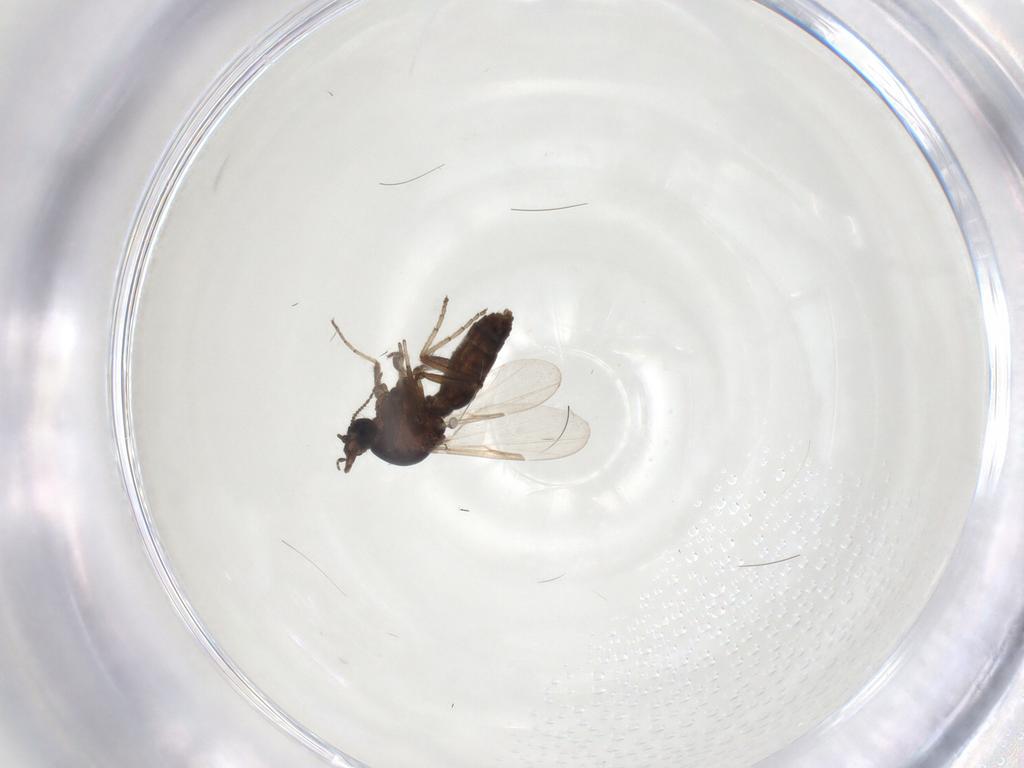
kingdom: Animalia
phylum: Arthropoda
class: Insecta
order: Diptera
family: Ceratopogonidae
